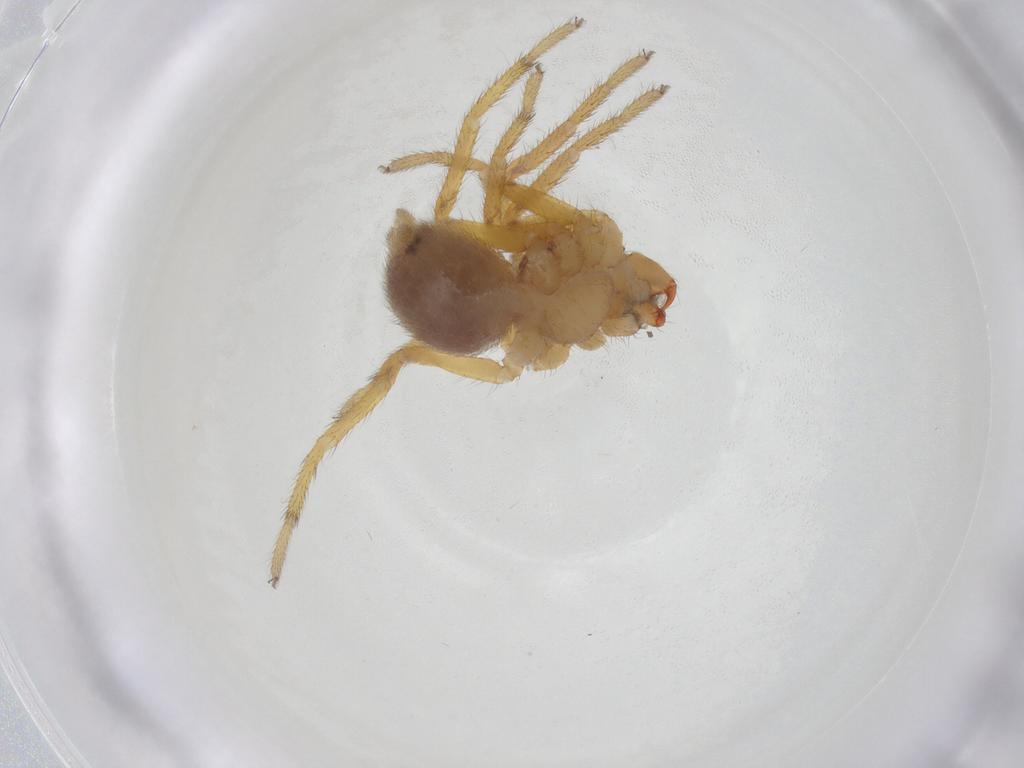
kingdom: Animalia
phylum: Arthropoda
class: Arachnida
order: Araneae
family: Corinnidae
